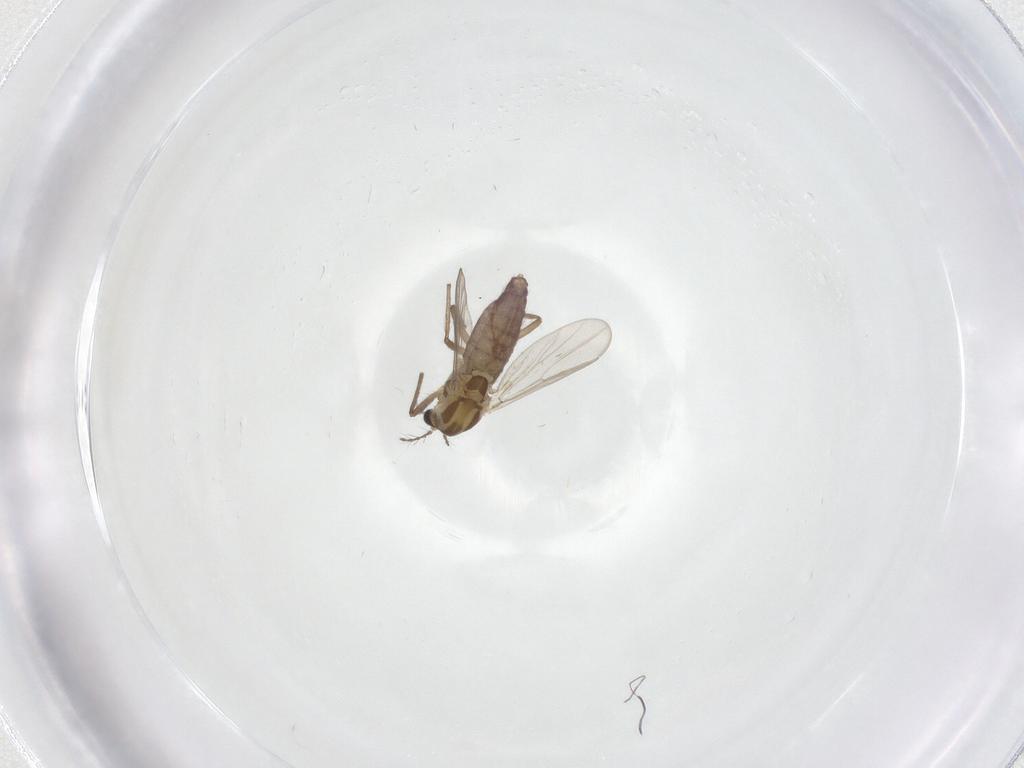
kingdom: Animalia
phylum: Arthropoda
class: Insecta
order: Diptera
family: Chironomidae
